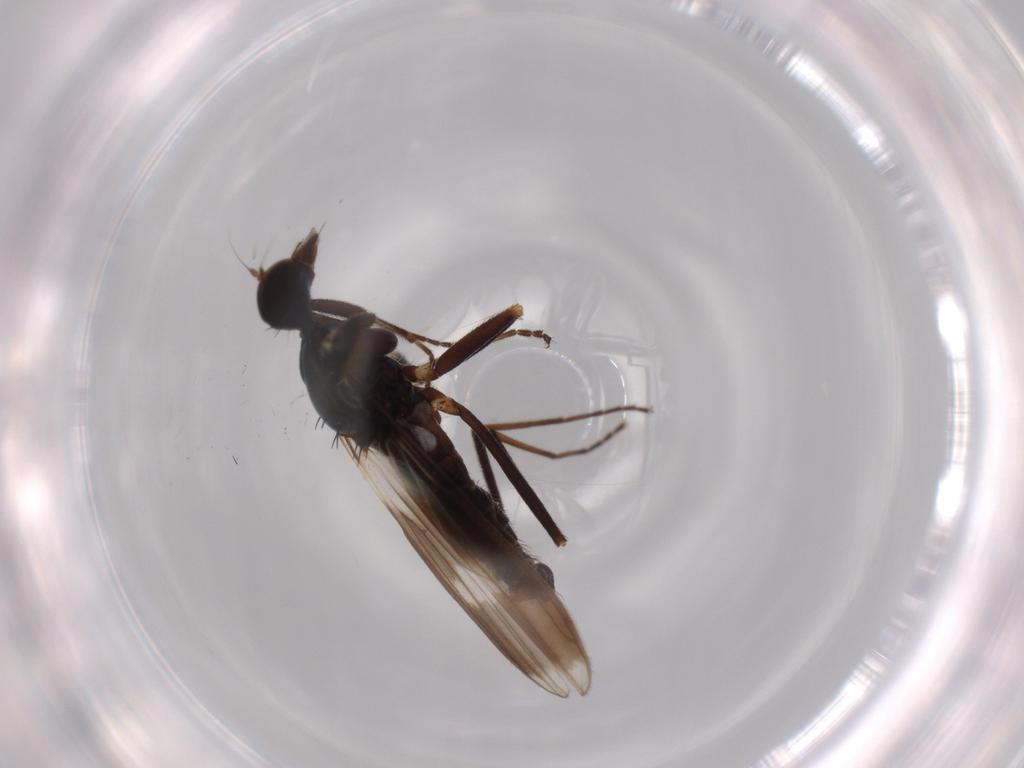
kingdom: Animalia
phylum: Arthropoda
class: Insecta
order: Diptera
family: Hybotidae
